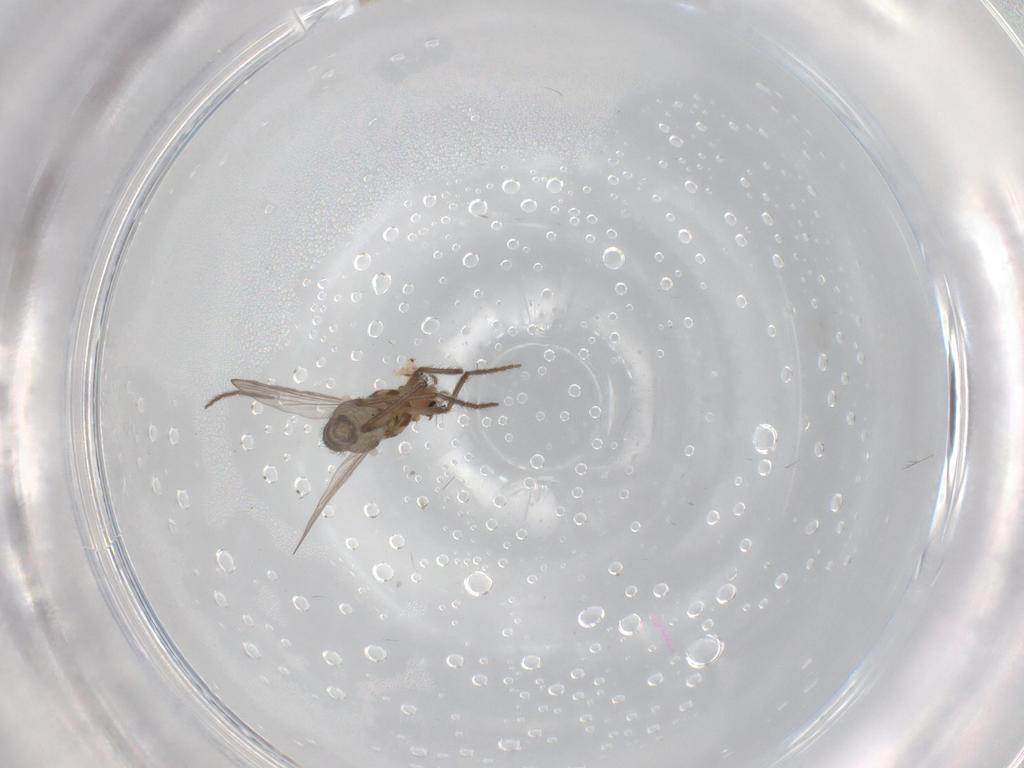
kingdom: Animalia
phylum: Arthropoda
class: Insecta
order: Diptera
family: Chironomidae
